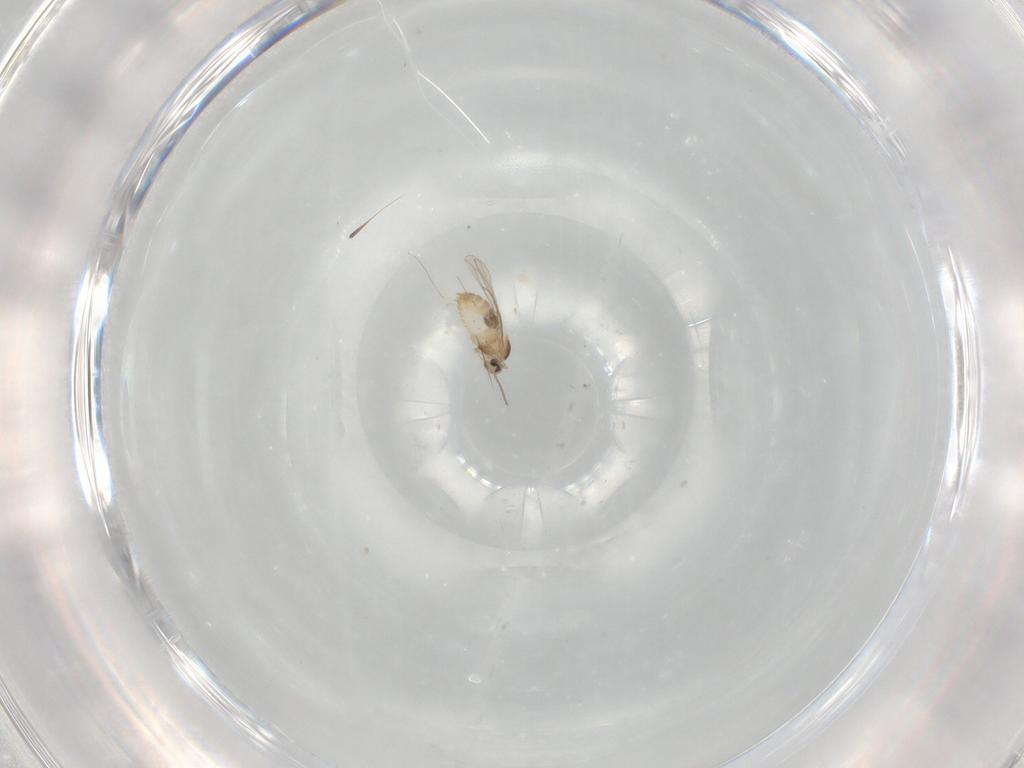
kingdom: Animalia
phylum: Arthropoda
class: Insecta
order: Diptera
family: Cecidomyiidae
